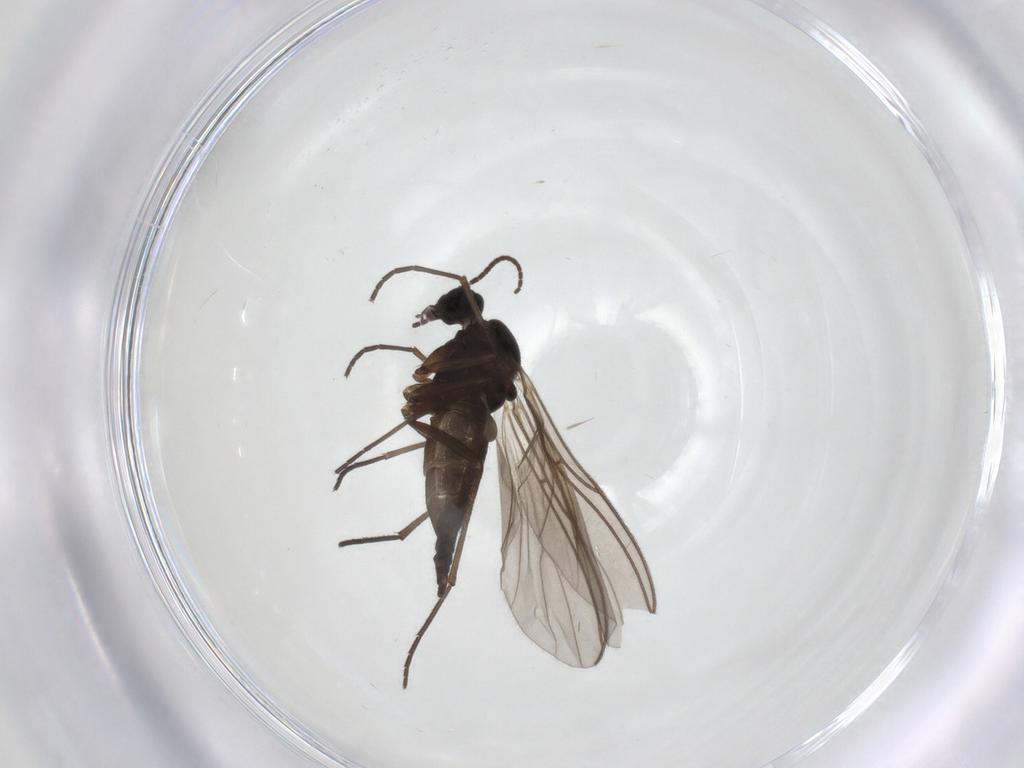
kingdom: Animalia
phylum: Arthropoda
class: Insecta
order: Diptera
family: Sciaridae
